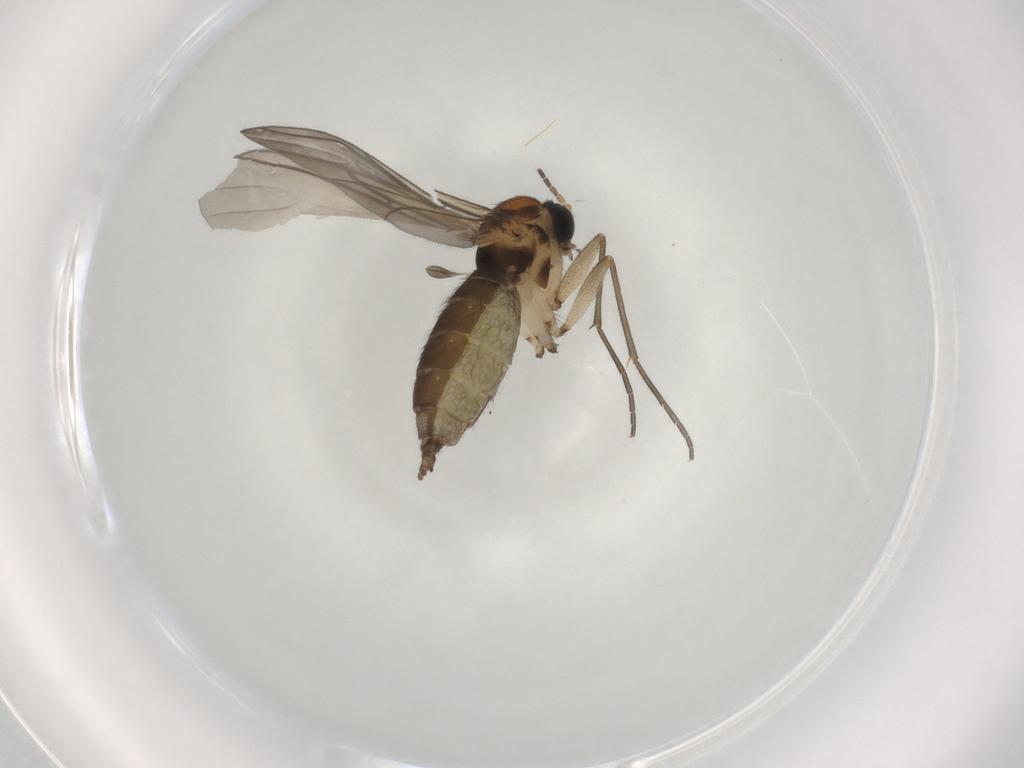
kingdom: Animalia
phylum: Arthropoda
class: Insecta
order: Diptera
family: Sciaridae
